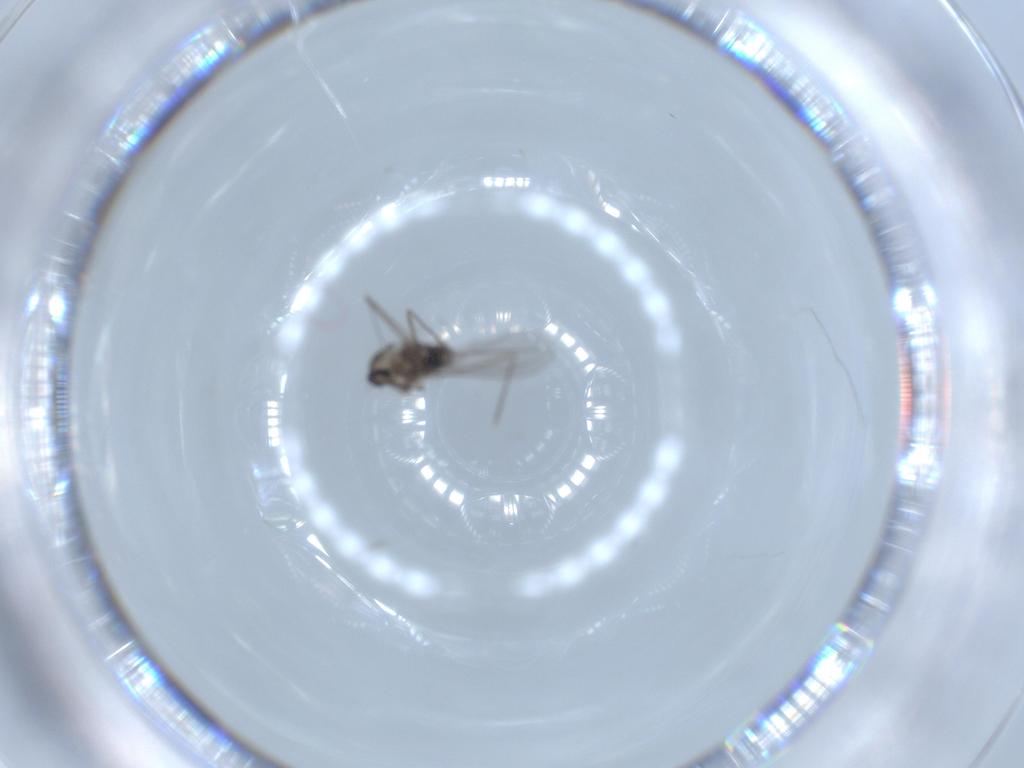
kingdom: Animalia
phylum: Arthropoda
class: Insecta
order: Diptera
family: Cecidomyiidae
